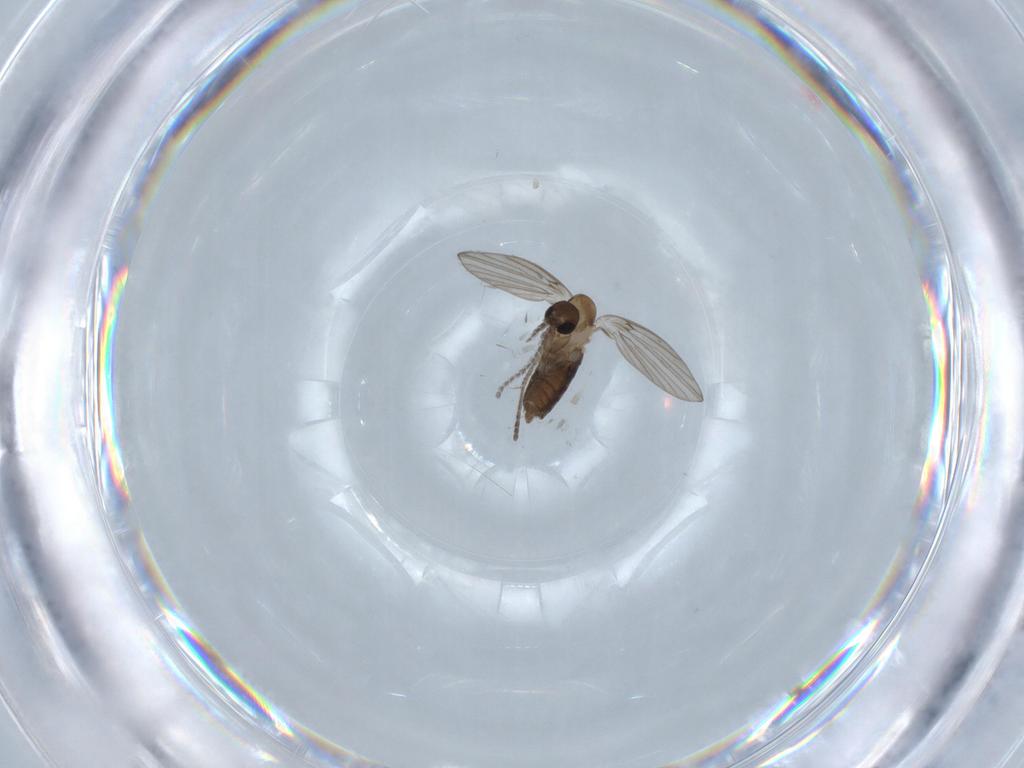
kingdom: Animalia
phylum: Arthropoda
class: Insecta
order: Diptera
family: Psychodidae
